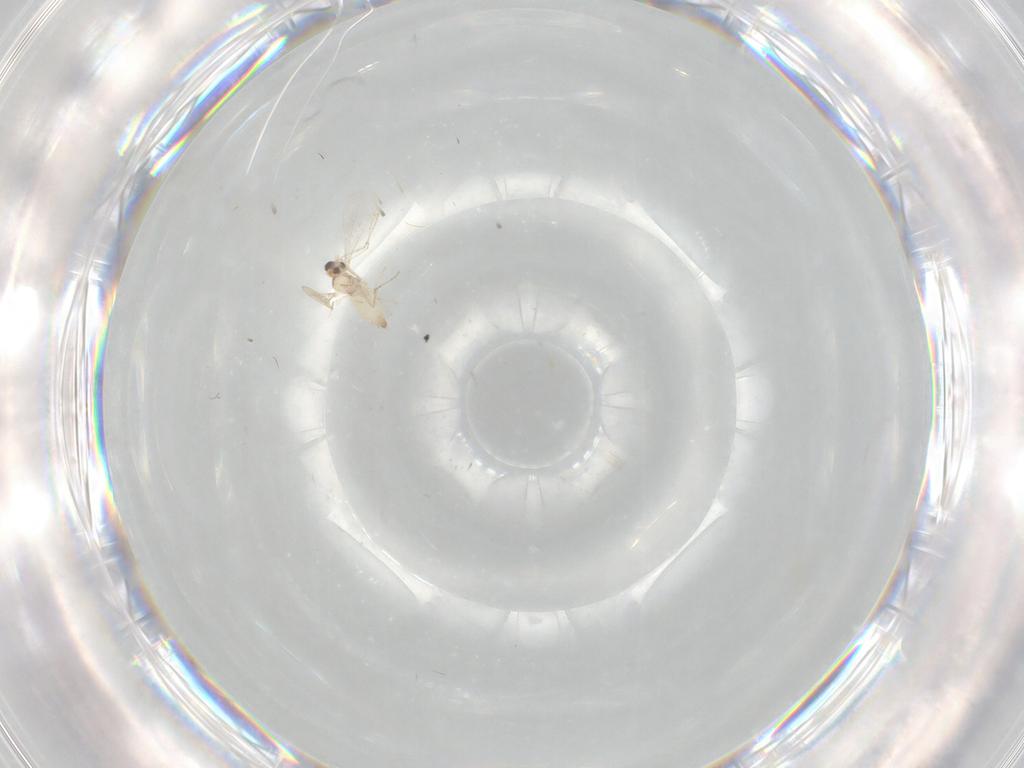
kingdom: Animalia
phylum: Arthropoda
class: Insecta
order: Diptera
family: Cecidomyiidae
